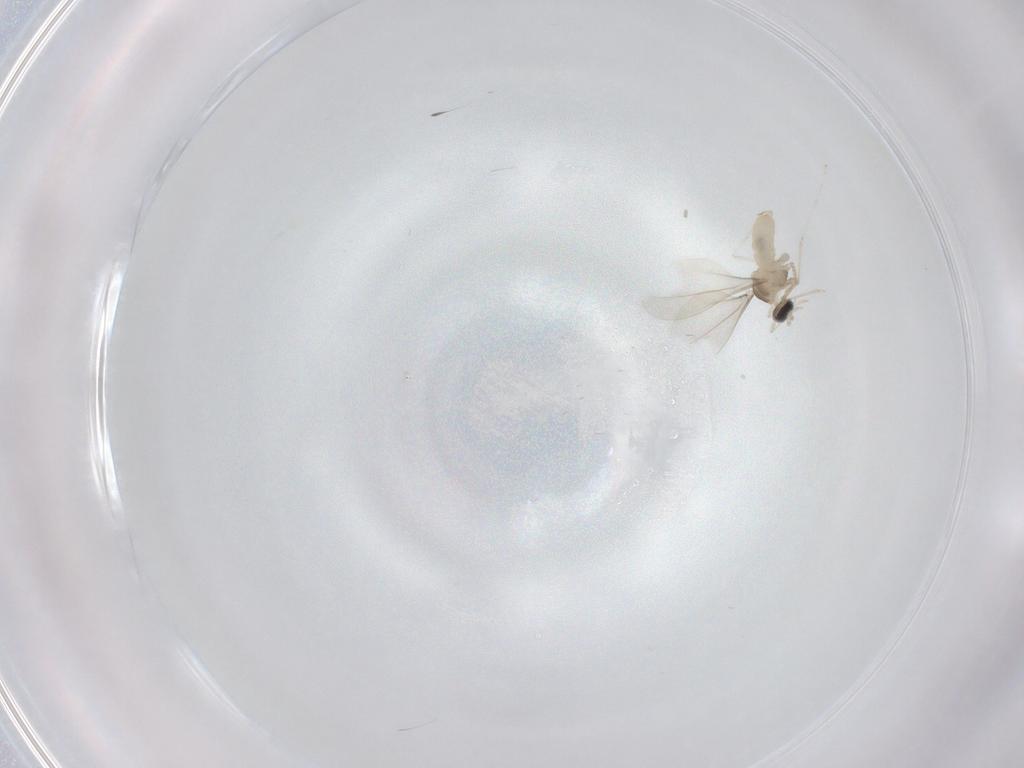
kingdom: Animalia
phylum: Arthropoda
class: Insecta
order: Diptera
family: Cecidomyiidae
